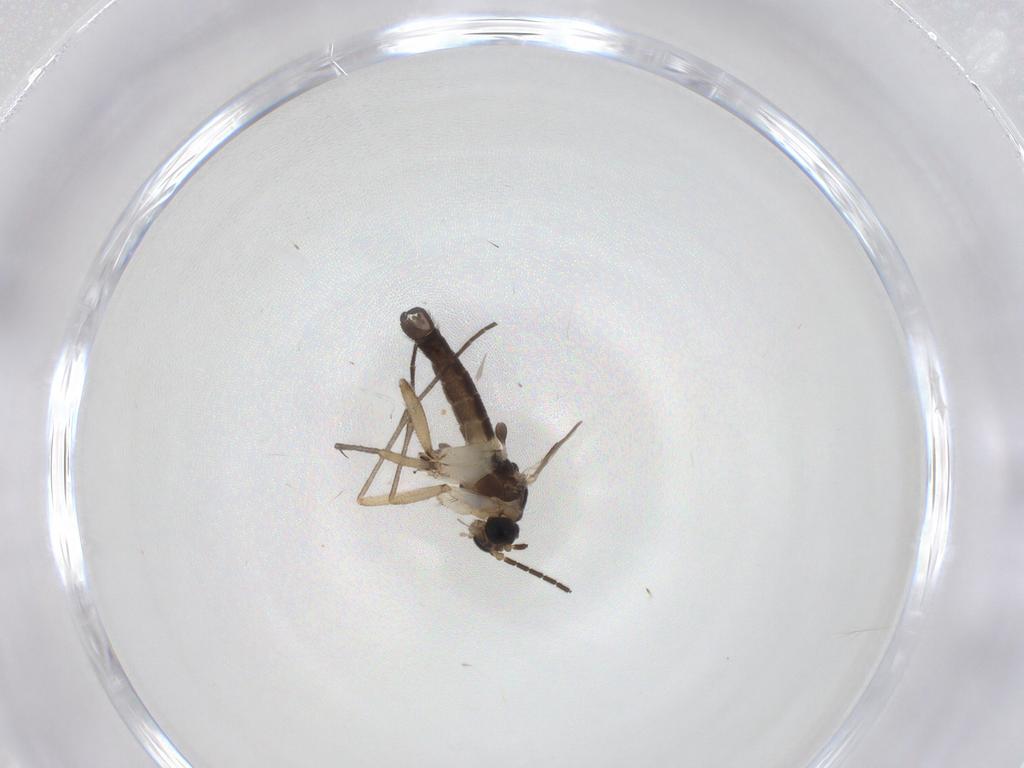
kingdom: Animalia
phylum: Arthropoda
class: Insecta
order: Diptera
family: Sciaridae
